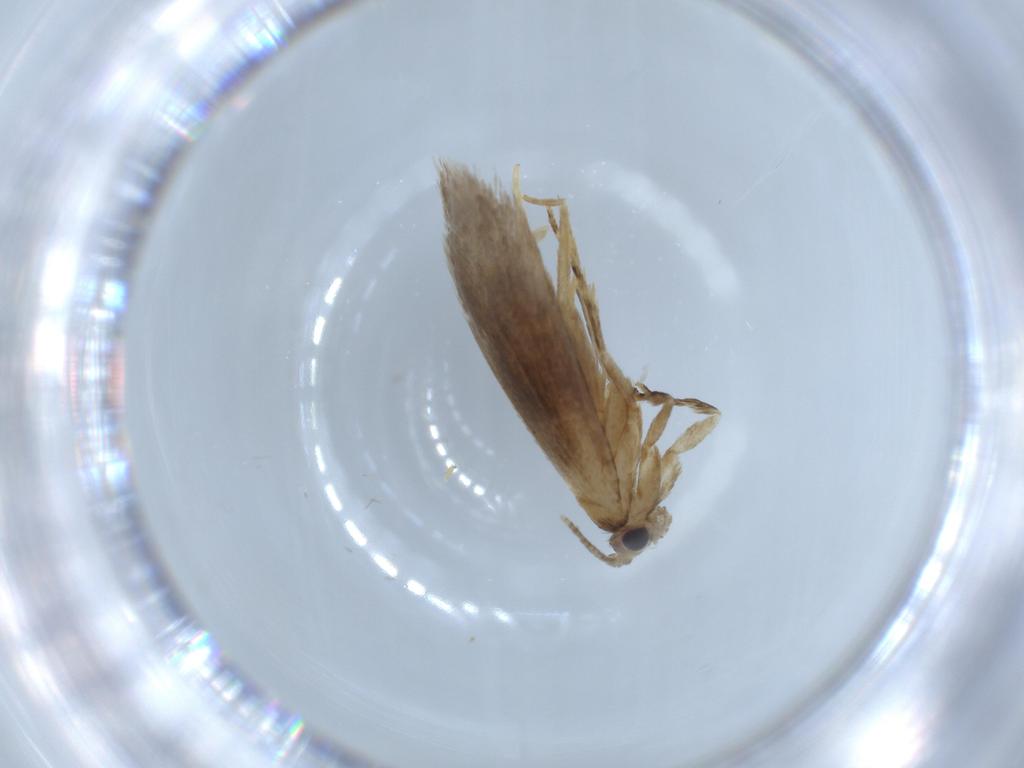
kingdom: Animalia
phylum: Arthropoda
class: Insecta
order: Lepidoptera
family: Tineidae
